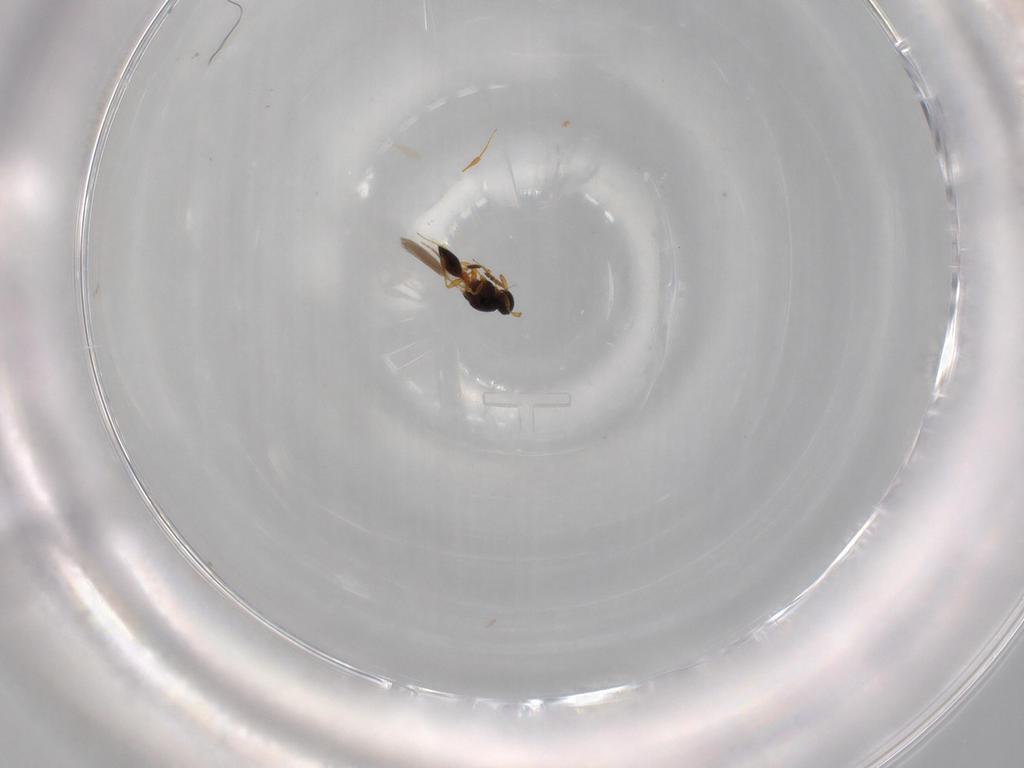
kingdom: Animalia
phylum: Arthropoda
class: Insecta
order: Hymenoptera
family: Platygastridae
